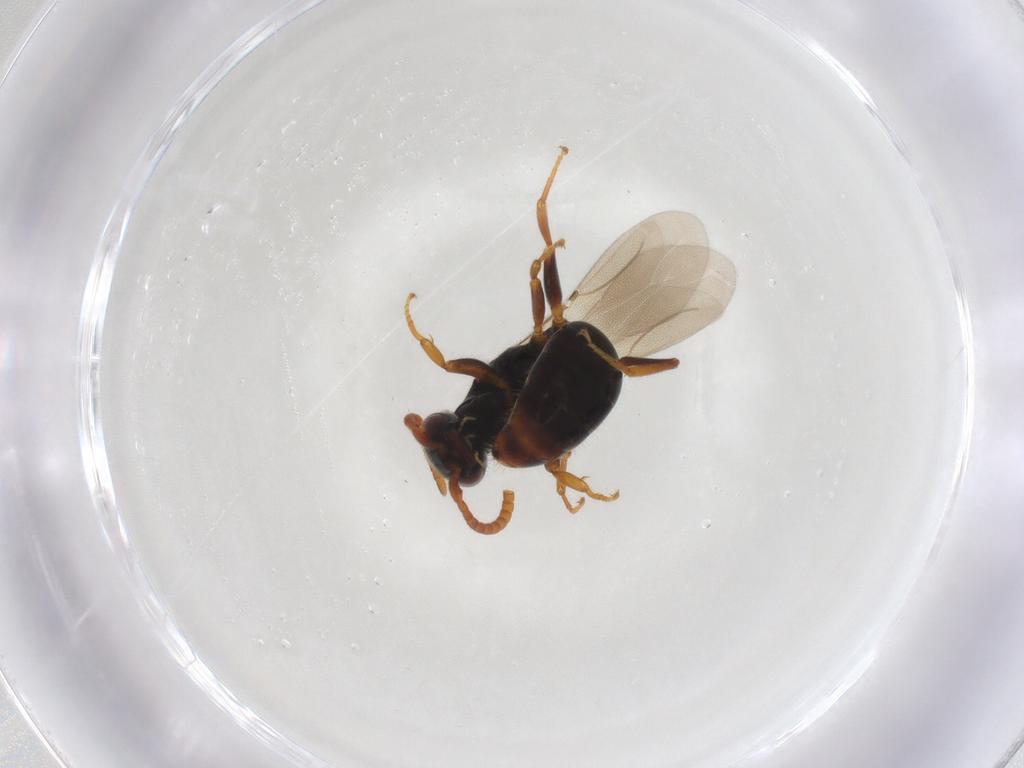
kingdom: Animalia
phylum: Arthropoda
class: Insecta
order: Hymenoptera
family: Bethylidae
